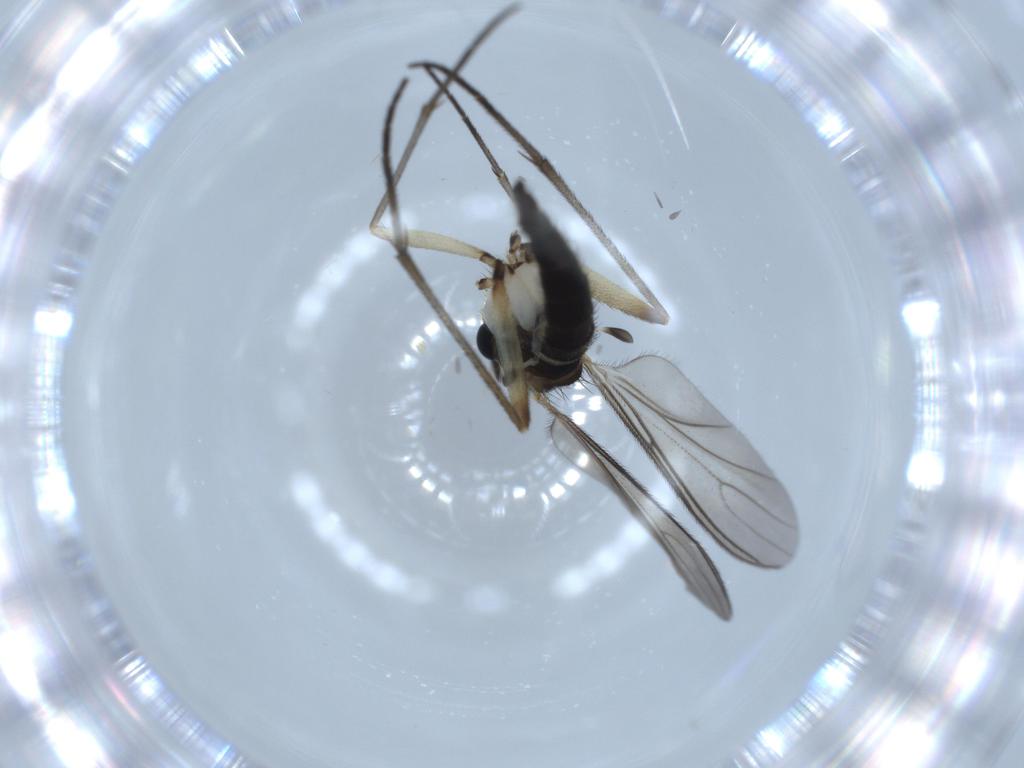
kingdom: Animalia
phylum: Arthropoda
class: Insecta
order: Diptera
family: Sciaridae
